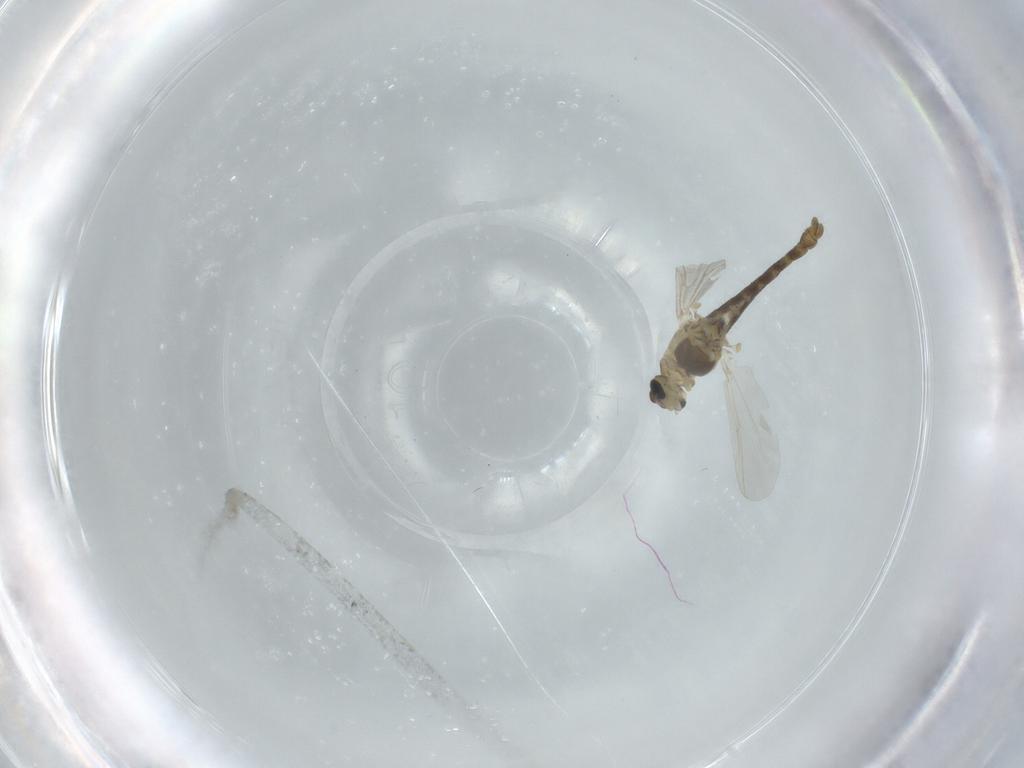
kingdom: Animalia
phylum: Arthropoda
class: Insecta
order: Diptera
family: Chironomidae
